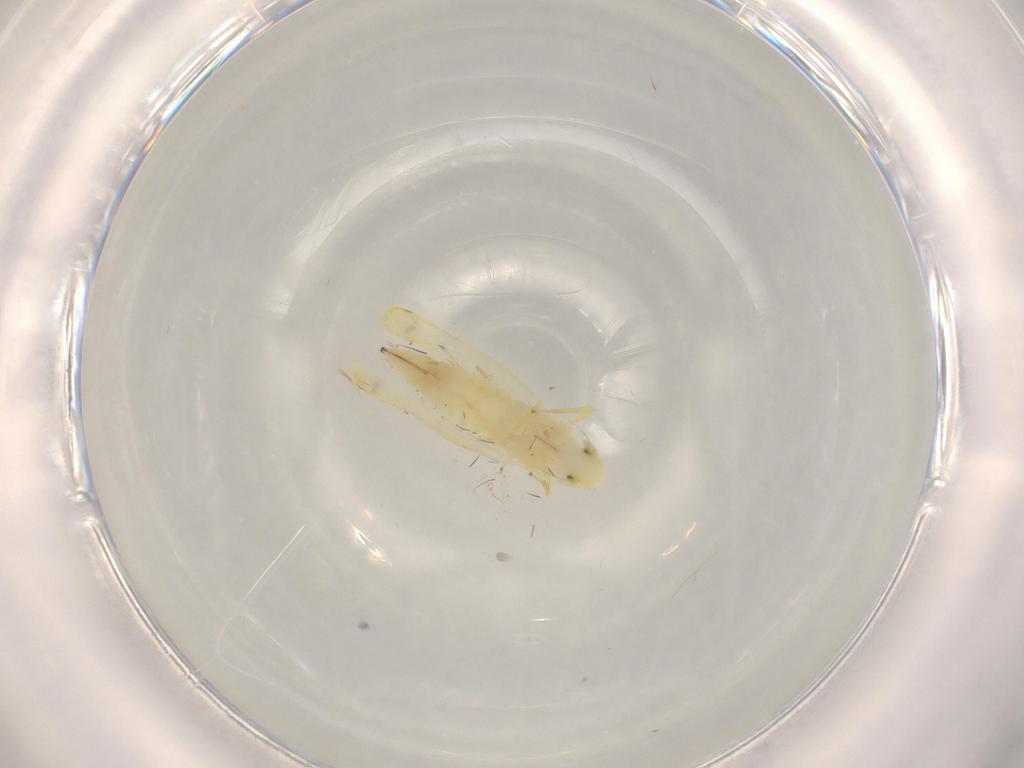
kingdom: Animalia
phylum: Arthropoda
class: Insecta
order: Hemiptera
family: Cicadellidae
